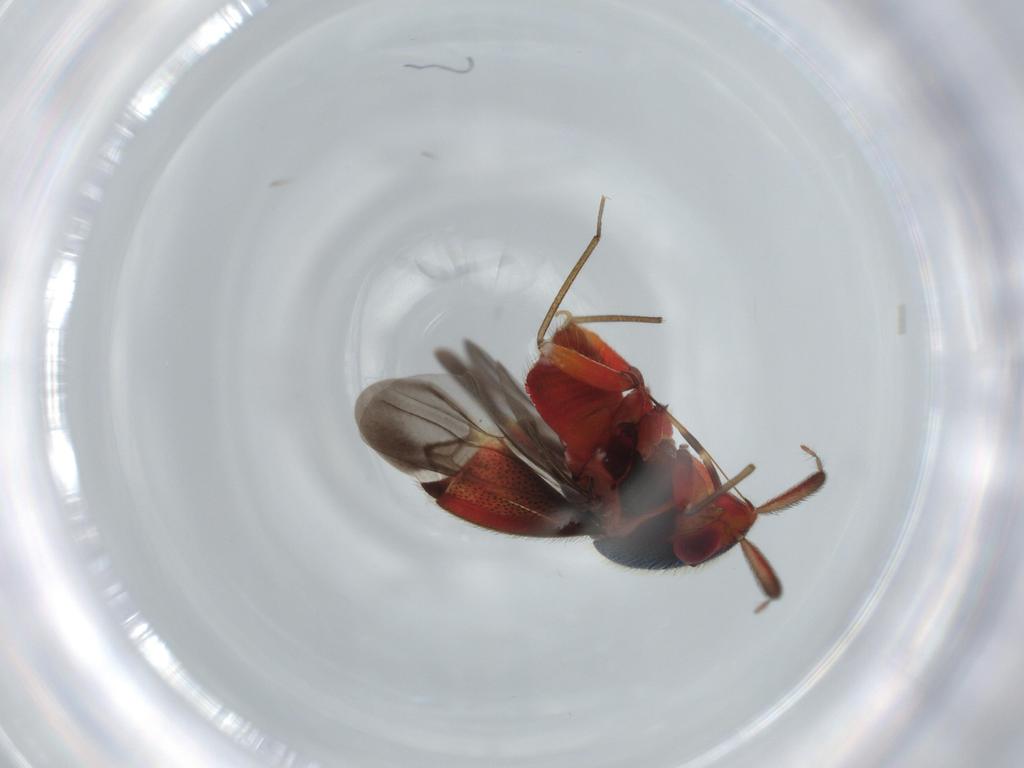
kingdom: Animalia
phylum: Arthropoda
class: Insecta
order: Hemiptera
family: Miridae
